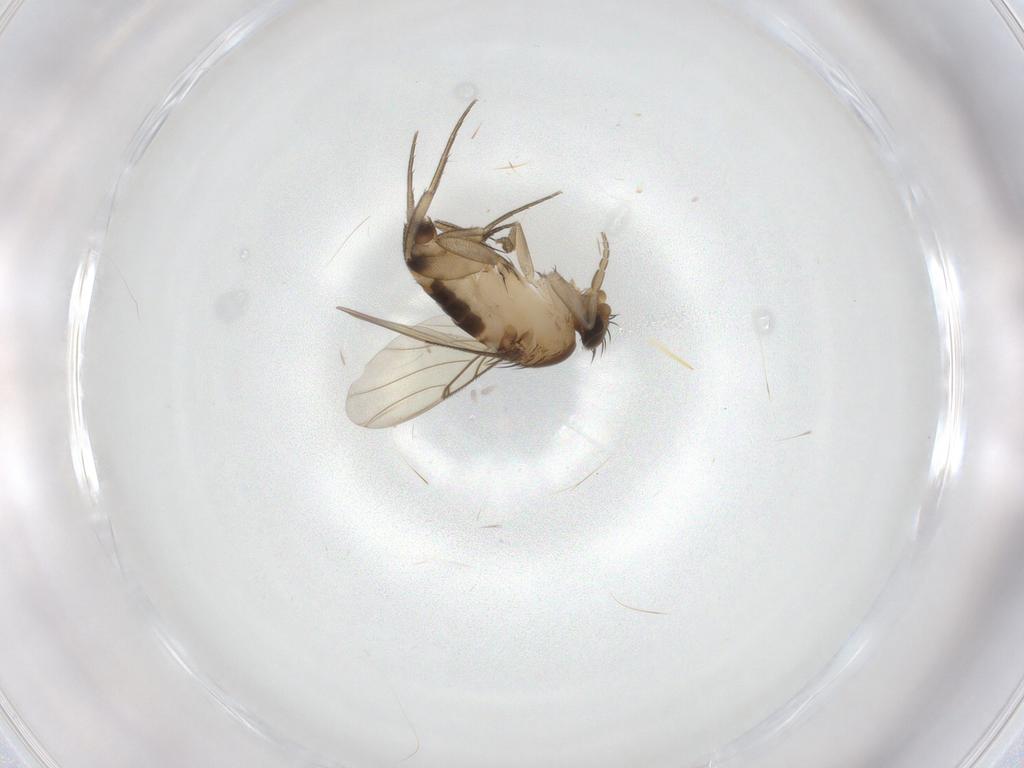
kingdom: Animalia
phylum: Arthropoda
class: Insecta
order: Diptera
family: Phoridae
